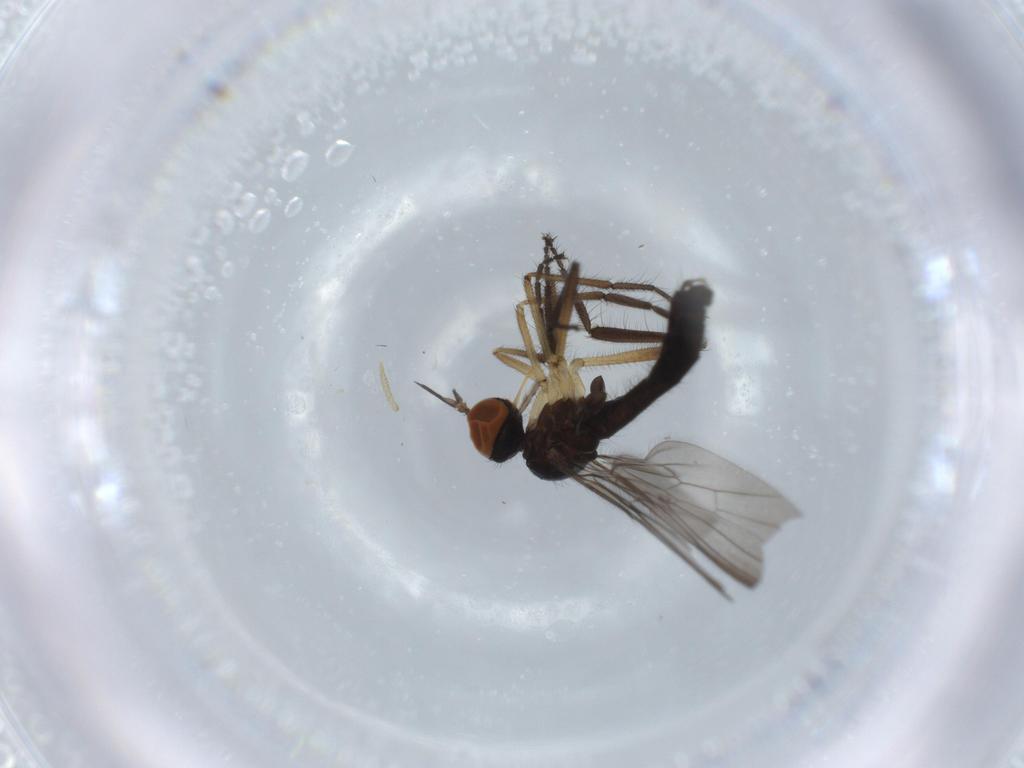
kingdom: Animalia
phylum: Arthropoda
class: Insecta
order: Diptera
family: Empididae
